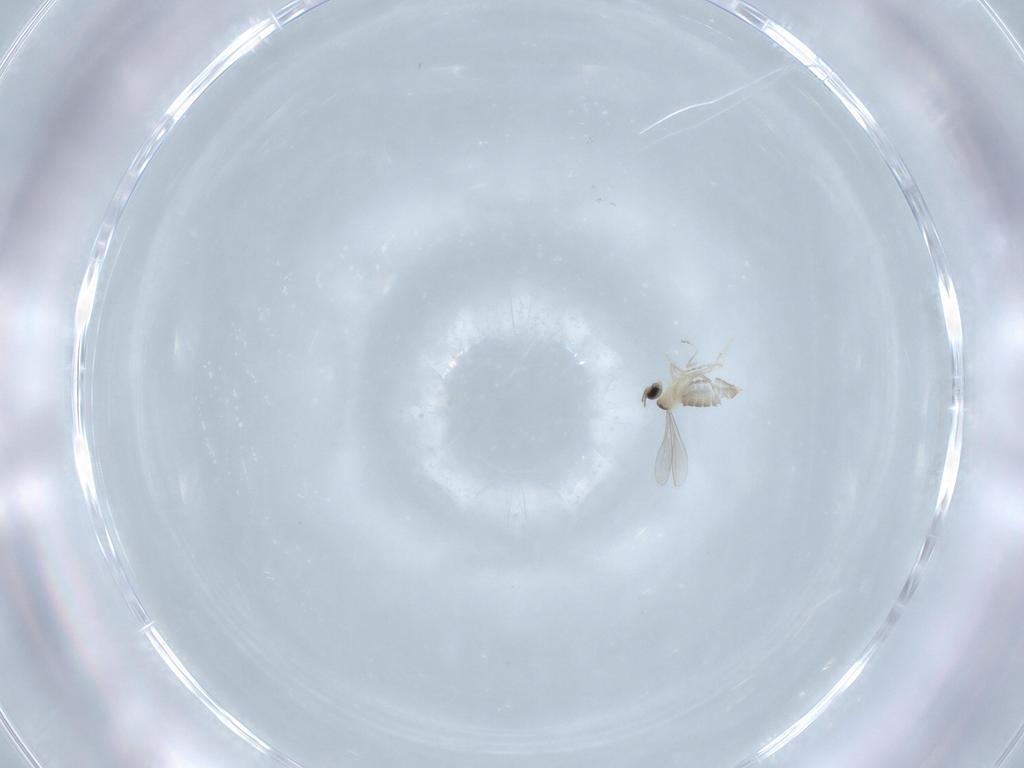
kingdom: Animalia
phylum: Arthropoda
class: Insecta
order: Diptera
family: Cecidomyiidae
